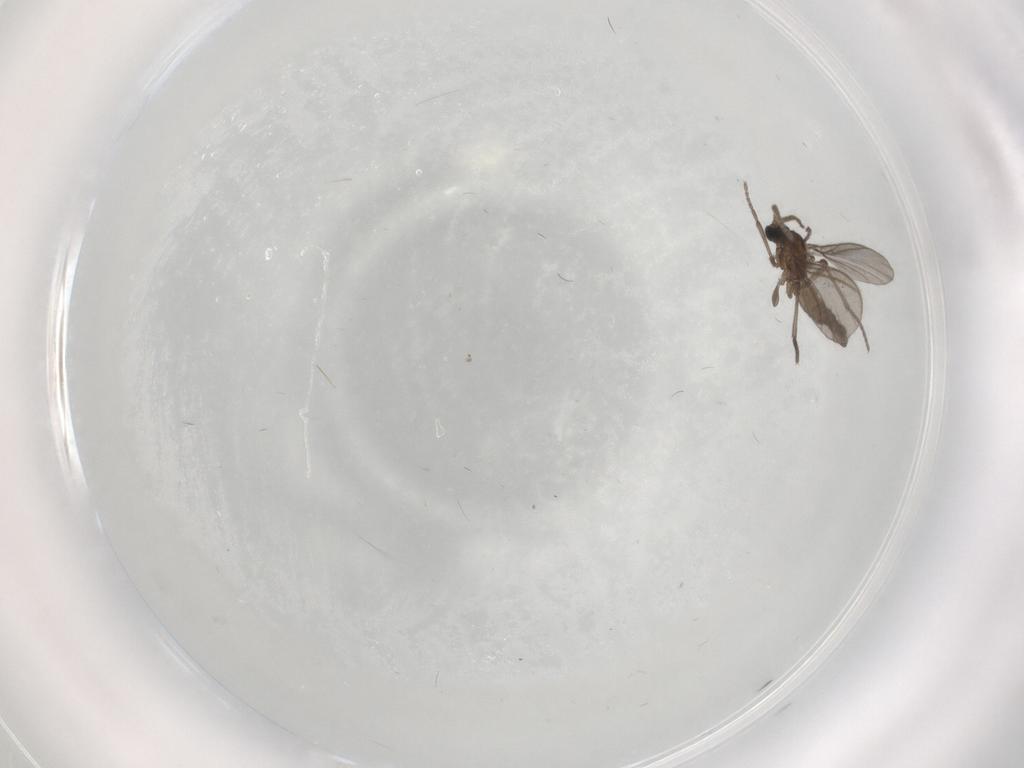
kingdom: Animalia
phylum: Arthropoda
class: Insecta
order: Diptera
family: Sciaridae
